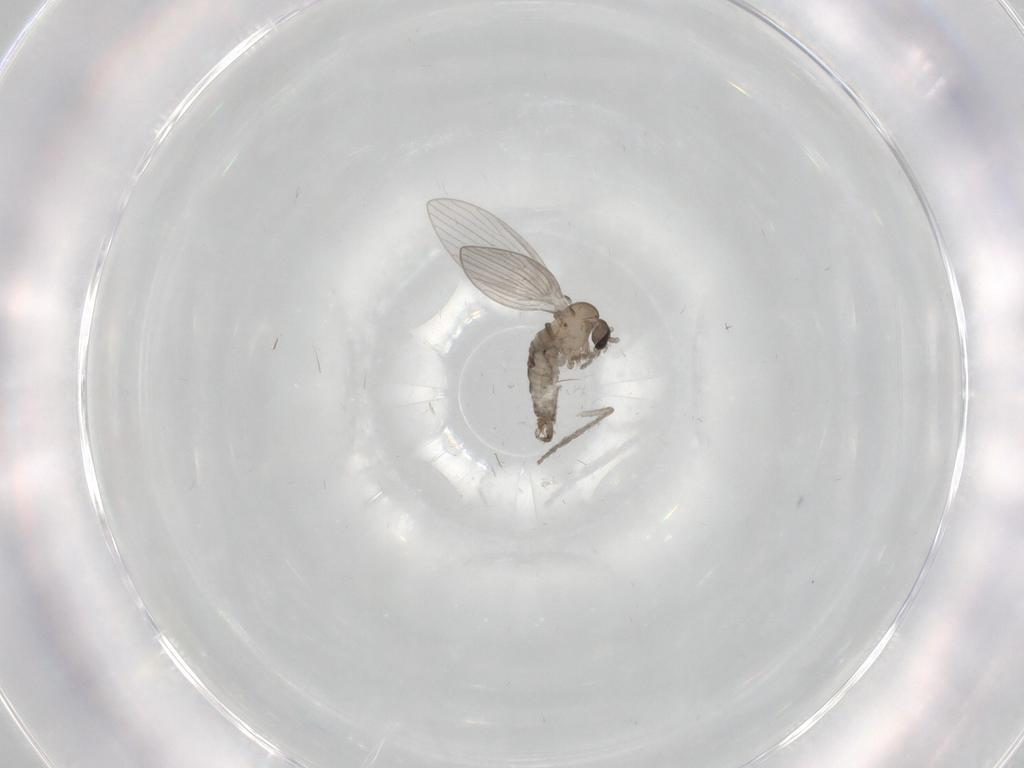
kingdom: Animalia
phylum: Arthropoda
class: Insecta
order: Diptera
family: Psychodidae
